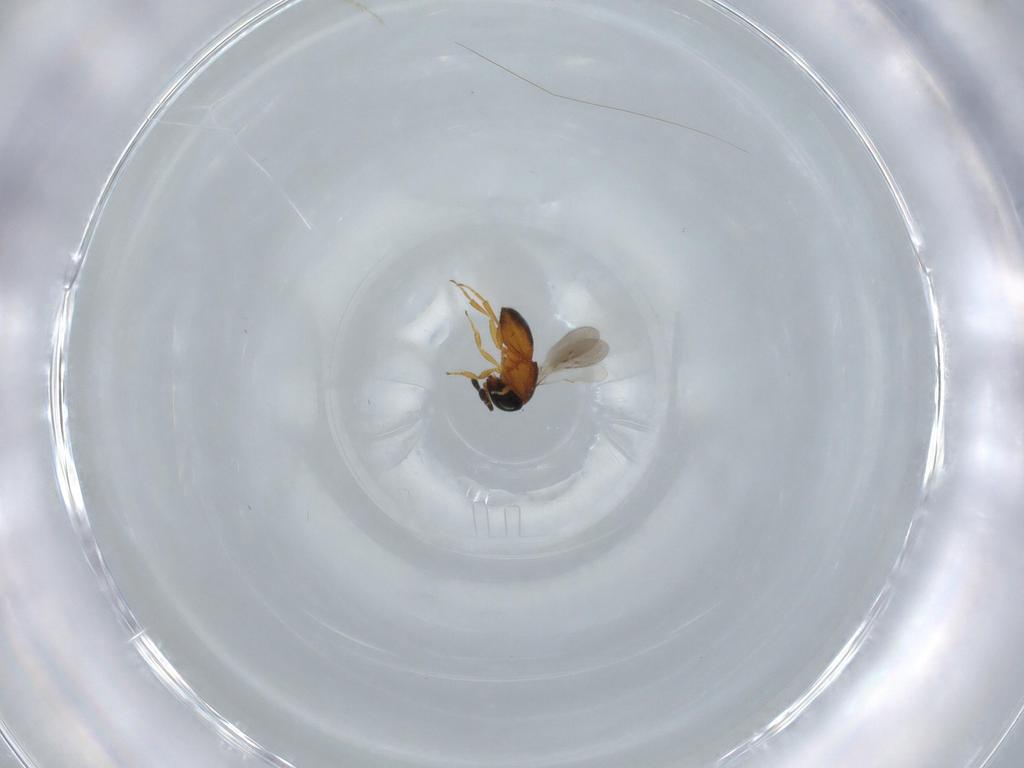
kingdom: Animalia
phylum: Arthropoda
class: Insecta
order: Hymenoptera
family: Scelionidae
